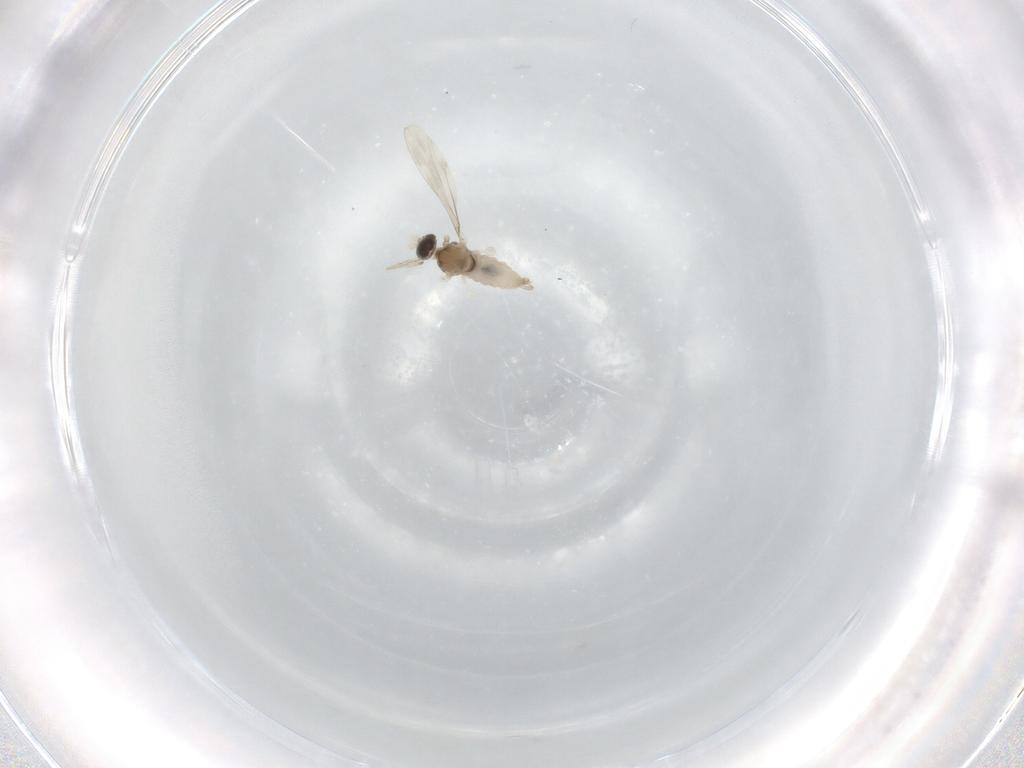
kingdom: Animalia
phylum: Arthropoda
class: Insecta
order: Diptera
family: Cecidomyiidae
